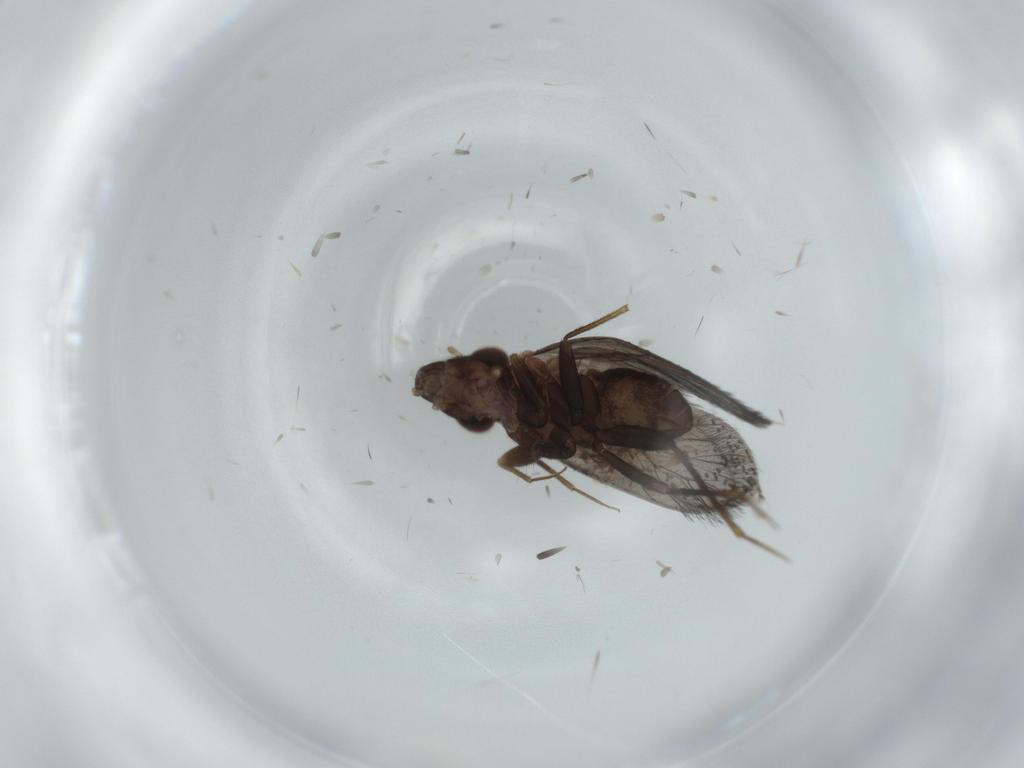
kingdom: Animalia
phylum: Arthropoda
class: Insecta
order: Psocodea
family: Lepidopsocidae
